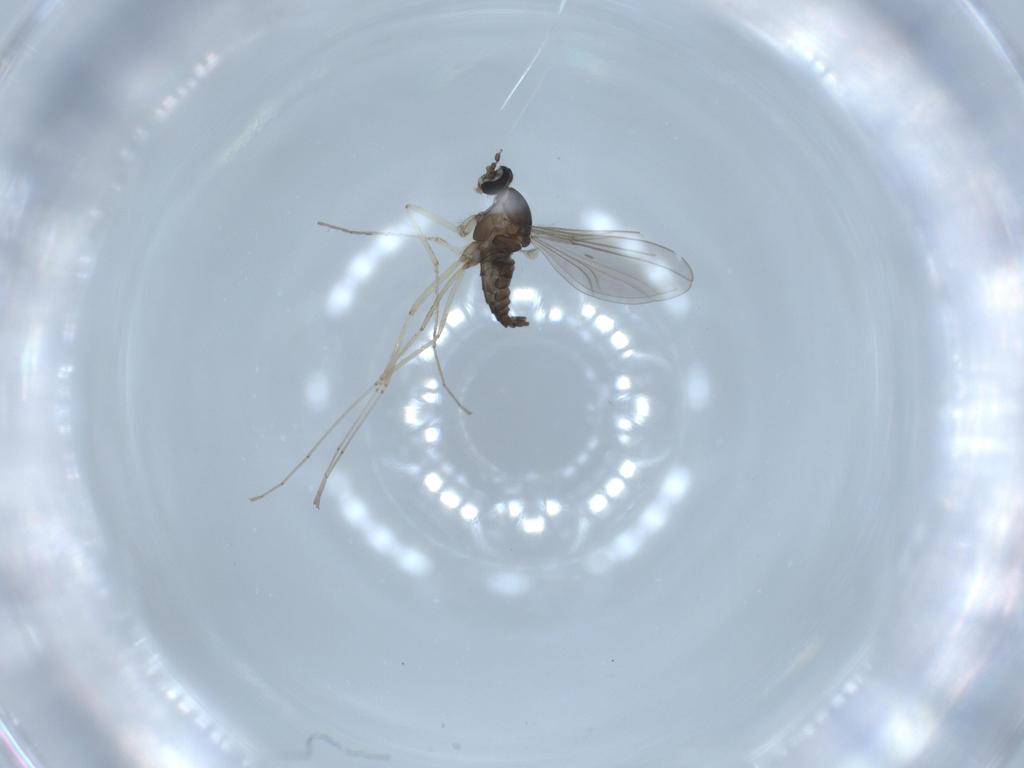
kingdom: Animalia
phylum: Arthropoda
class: Insecta
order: Diptera
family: Cecidomyiidae
